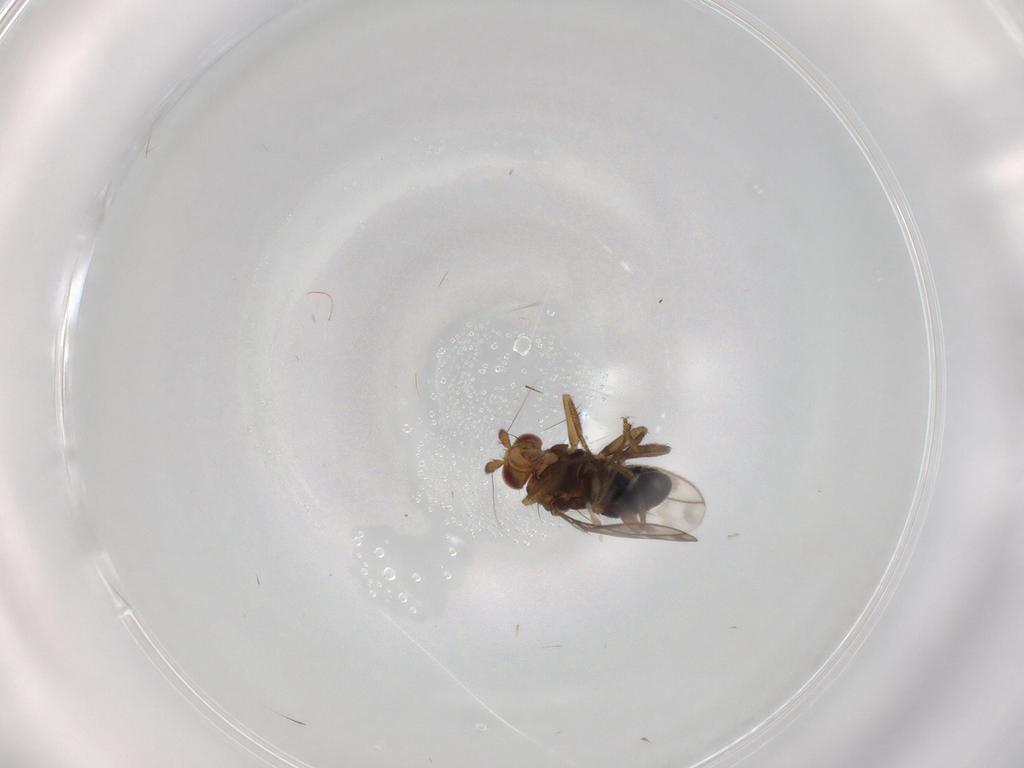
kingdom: Animalia
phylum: Arthropoda
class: Insecta
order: Diptera
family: Sphaeroceridae
